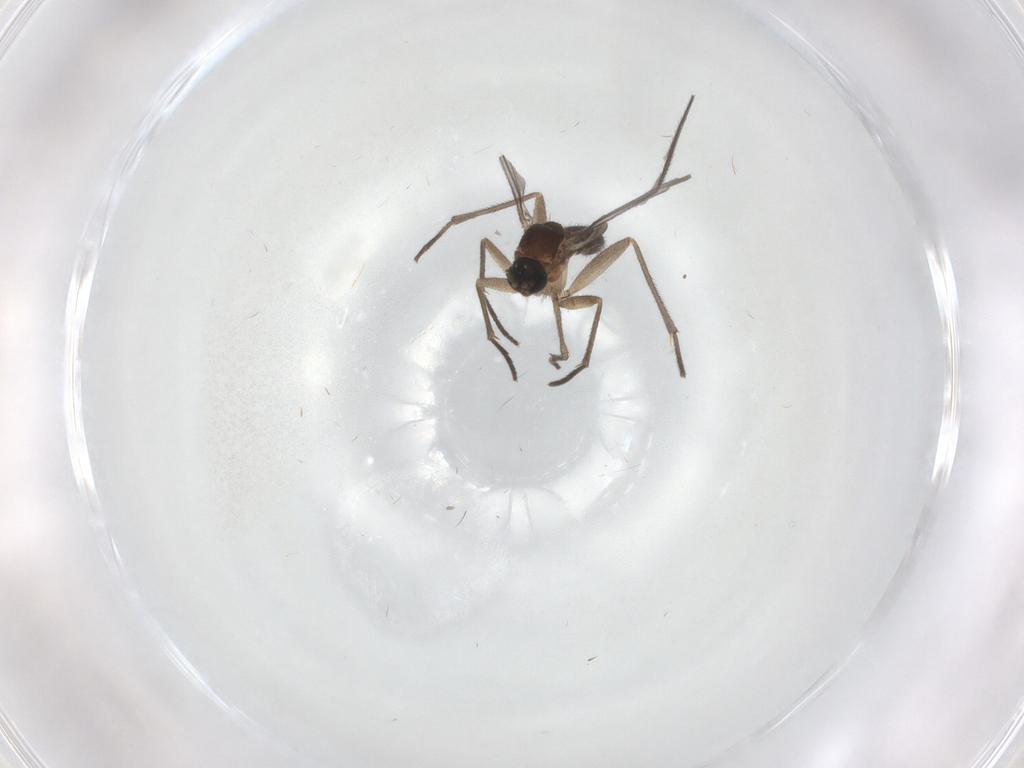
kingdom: Animalia
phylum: Arthropoda
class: Insecta
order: Diptera
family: Sciaridae
